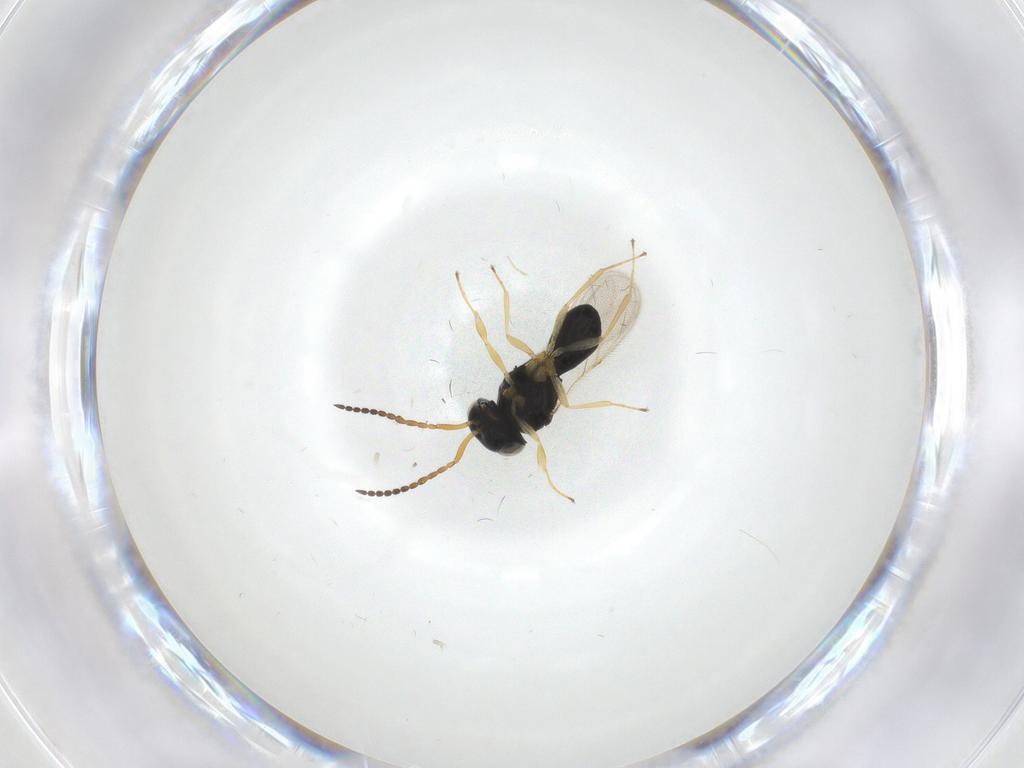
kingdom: Animalia
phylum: Arthropoda
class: Insecta
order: Hymenoptera
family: Scelionidae
